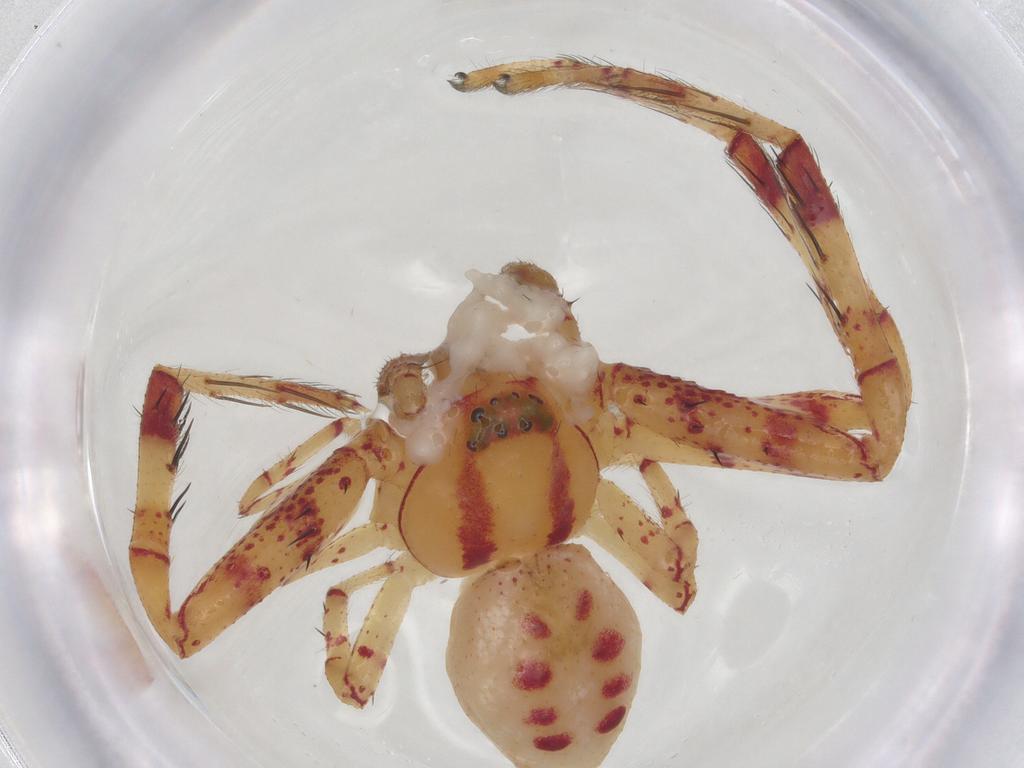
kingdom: Animalia
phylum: Arthropoda
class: Arachnida
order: Araneae
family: Thomisidae
